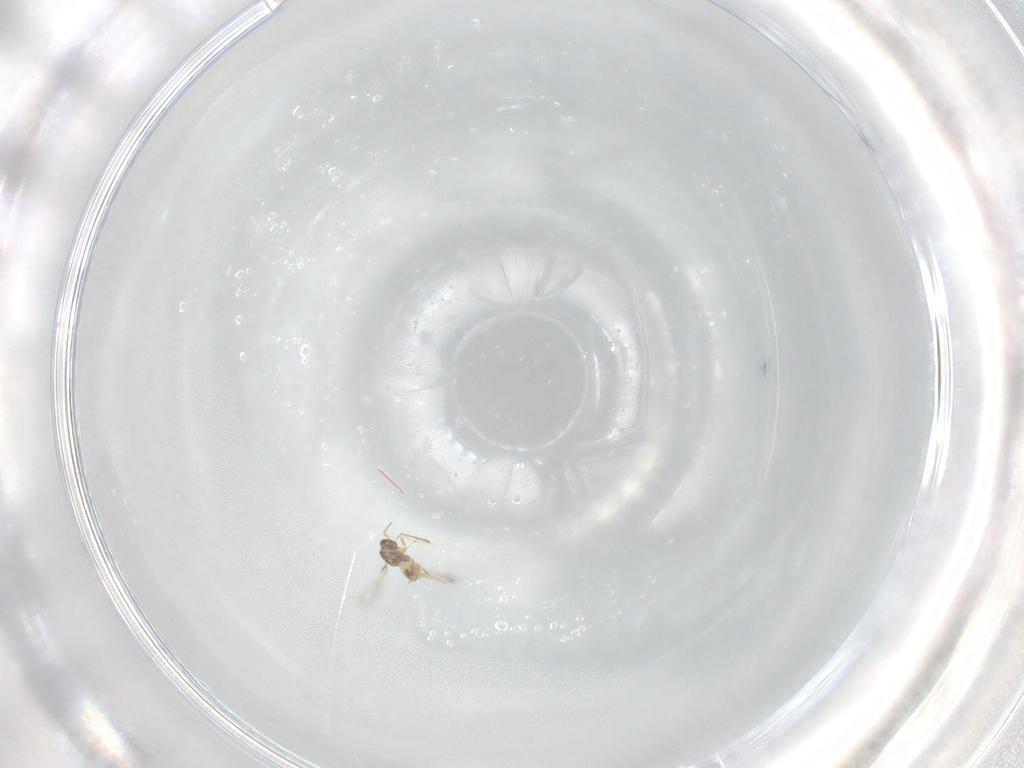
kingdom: Animalia
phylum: Arthropoda
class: Insecta
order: Hymenoptera
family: Mymaridae
